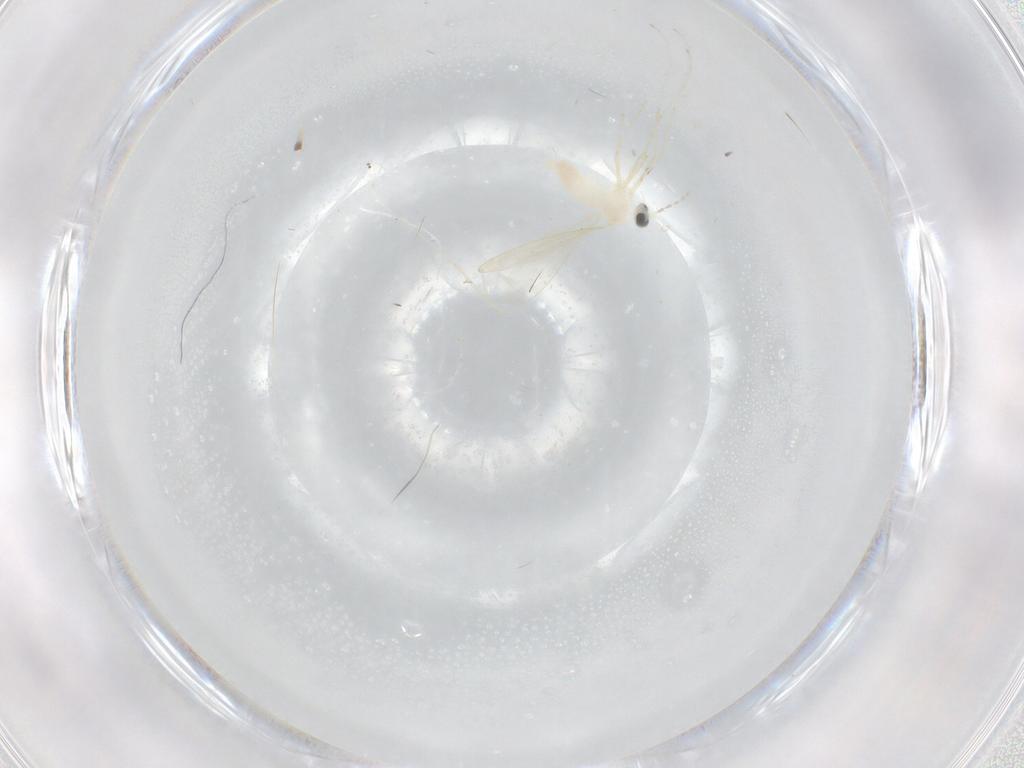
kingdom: Animalia
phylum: Arthropoda
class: Insecta
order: Diptera
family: Cecidomyiidae
